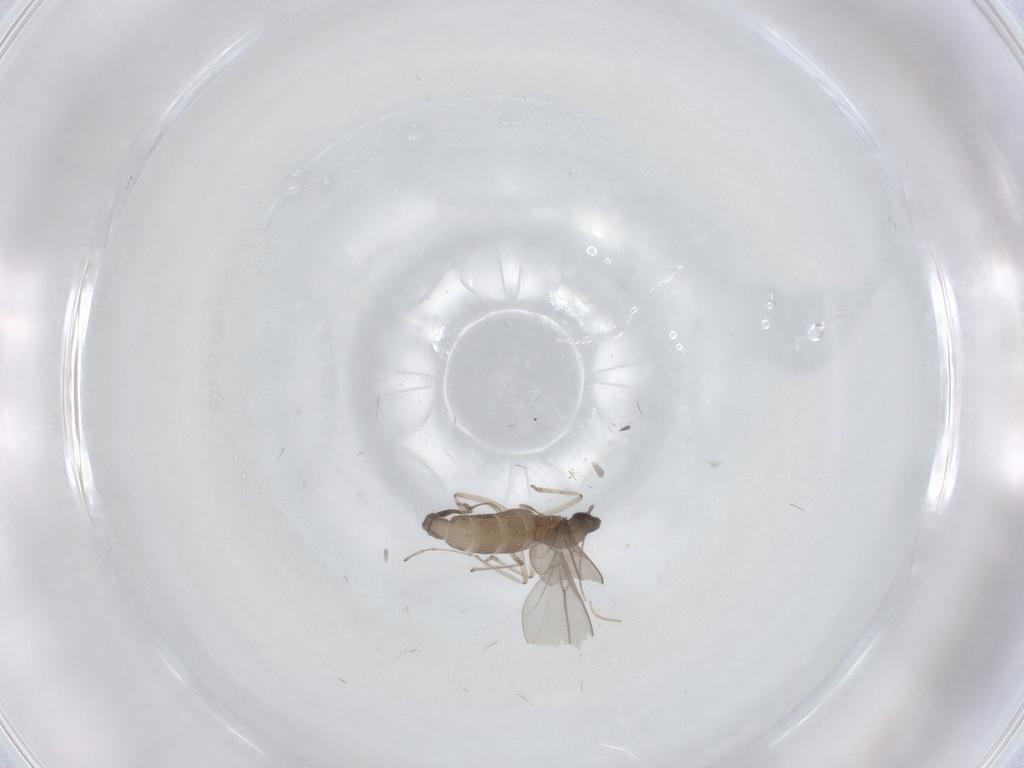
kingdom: Animalia
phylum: Arthropoda
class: Insecta
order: Diptera
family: Chironomidae
